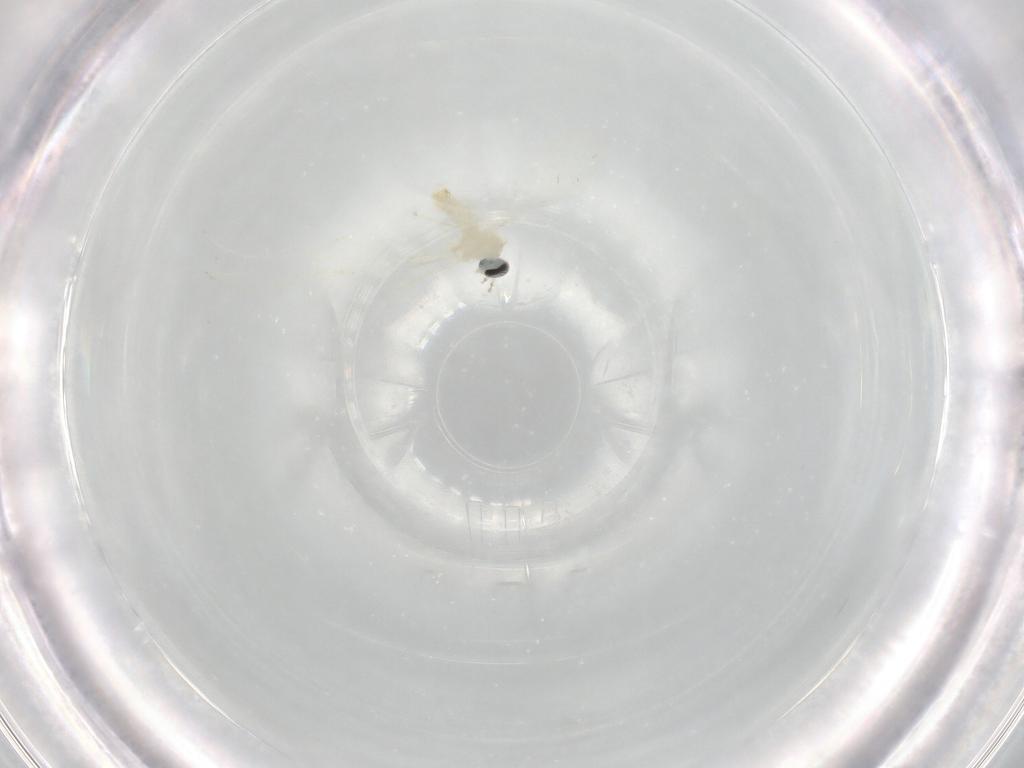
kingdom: Animalia
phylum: Arthropoda
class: Insecta
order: Diptera
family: Cecidomyiidae
